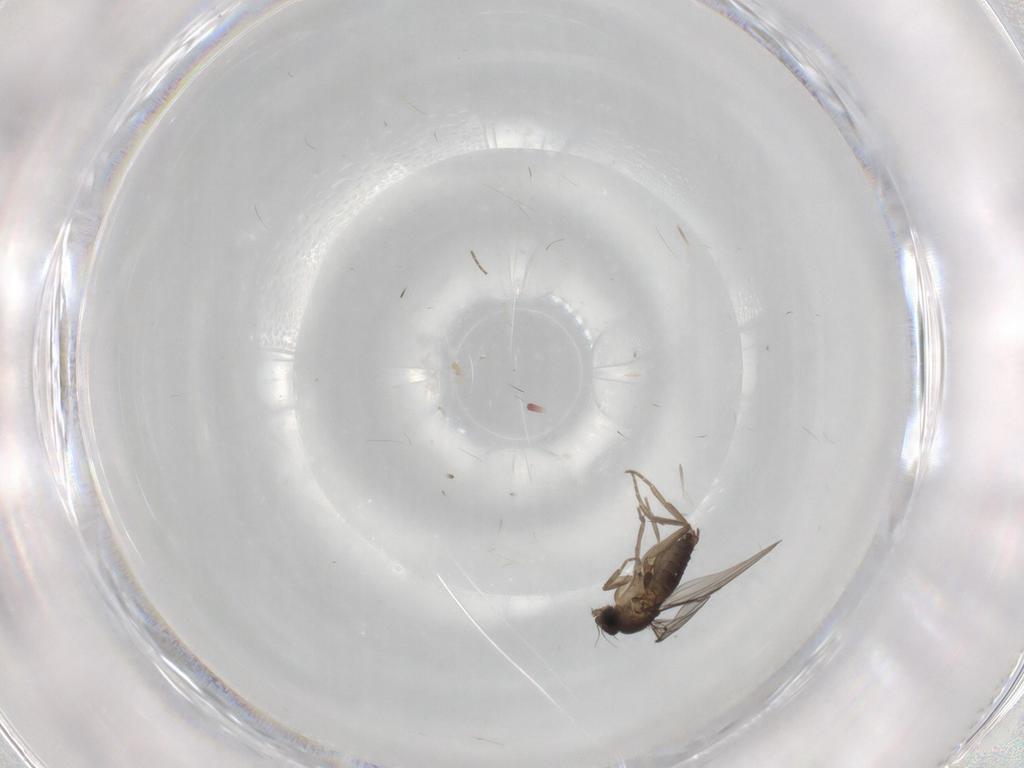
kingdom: Animalia
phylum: Arthropoda
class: Insecta
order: Diptera
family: Phoridae
